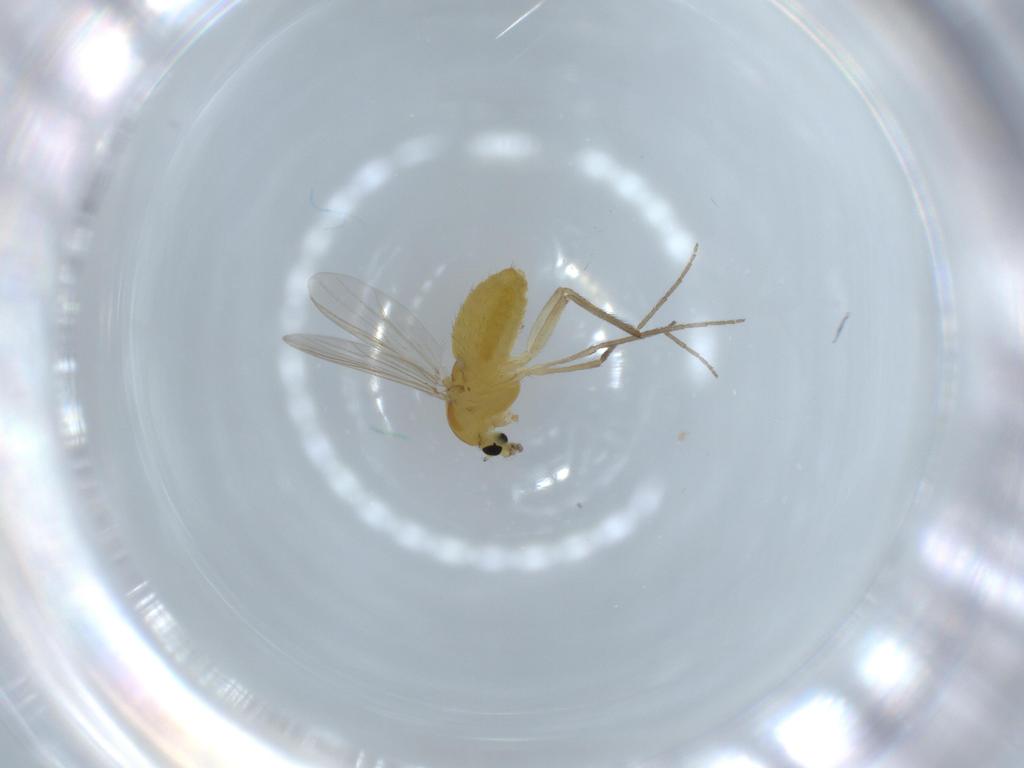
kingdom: Animalia
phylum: Arthropoda
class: Insecta
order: Diptera
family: Chironomidae
